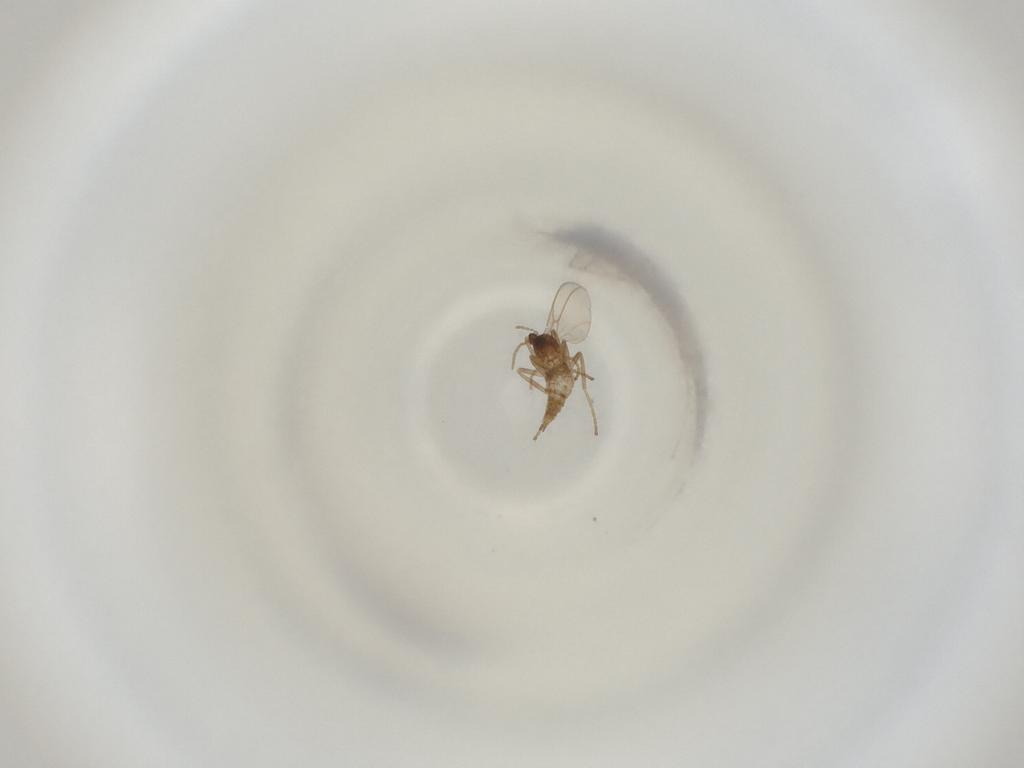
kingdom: Animalia
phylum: Arthropoda
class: Insecta
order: Diptera
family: Cecidomyiidae
